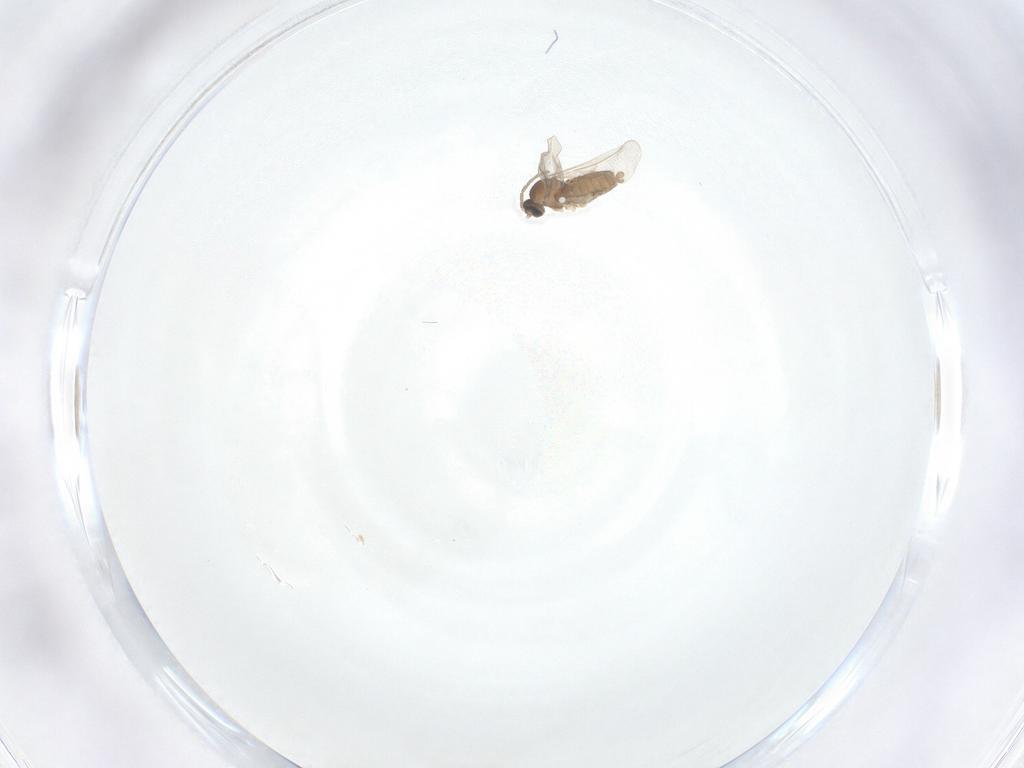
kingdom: Animalia
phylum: Arthropoda
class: Insecta
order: Diptera
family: Cecidomyiidae
